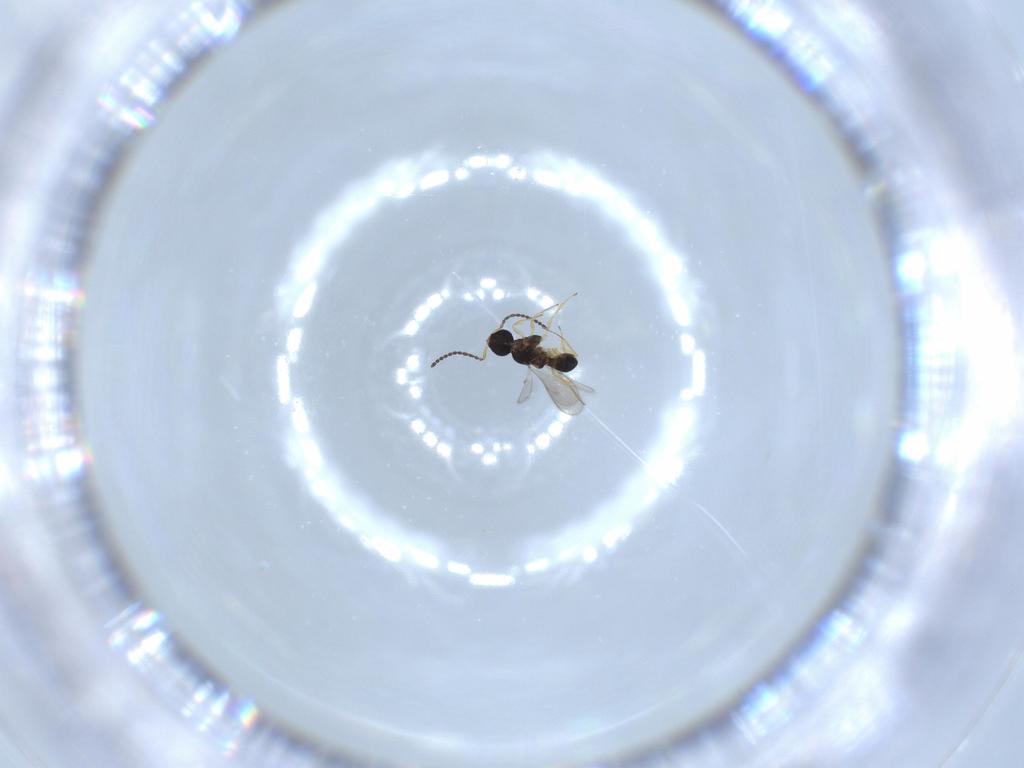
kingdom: Animalia
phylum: Arthropoda
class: Insecta
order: Hymenoptera
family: Scelionidae
